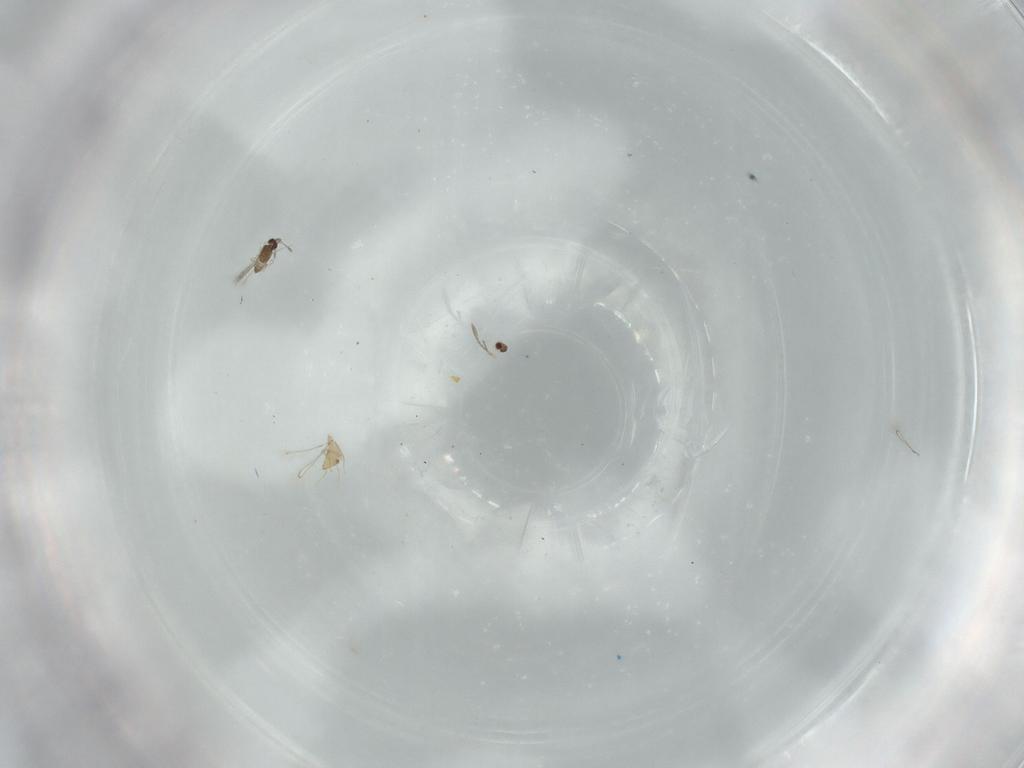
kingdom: Animalia
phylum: Arthropoda
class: Insecta
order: Hymenoptera
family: Mymaridae
